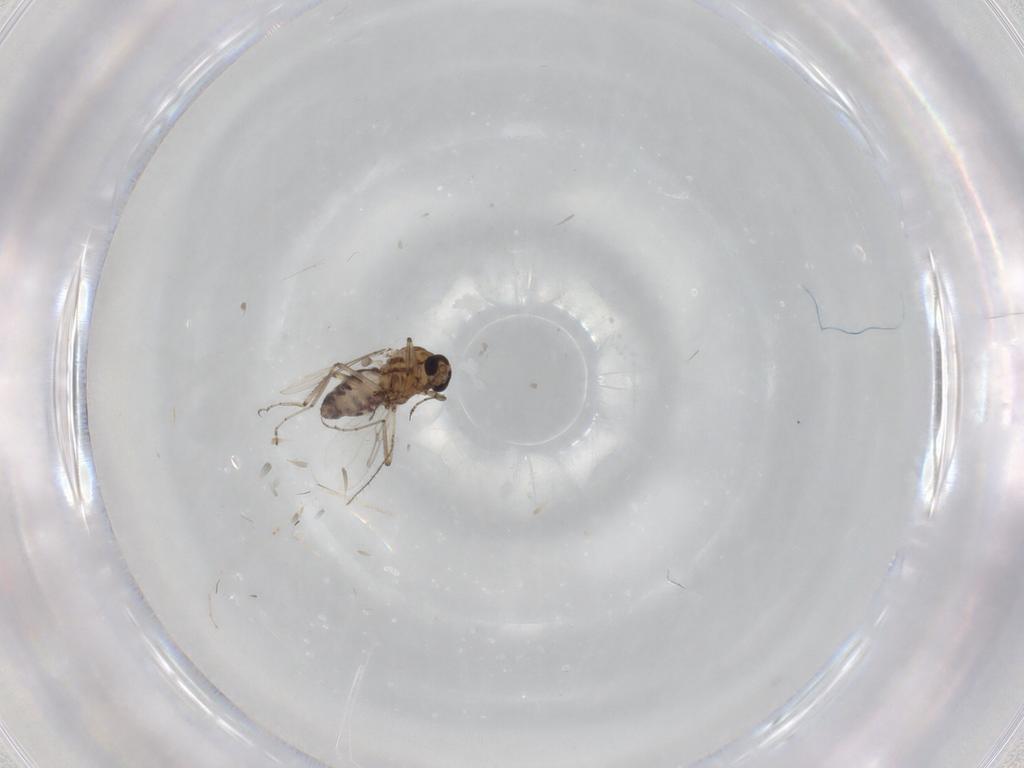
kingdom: Animalia
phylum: Arthropoda
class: Insecta
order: Diptera
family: Ceratopogonidae
